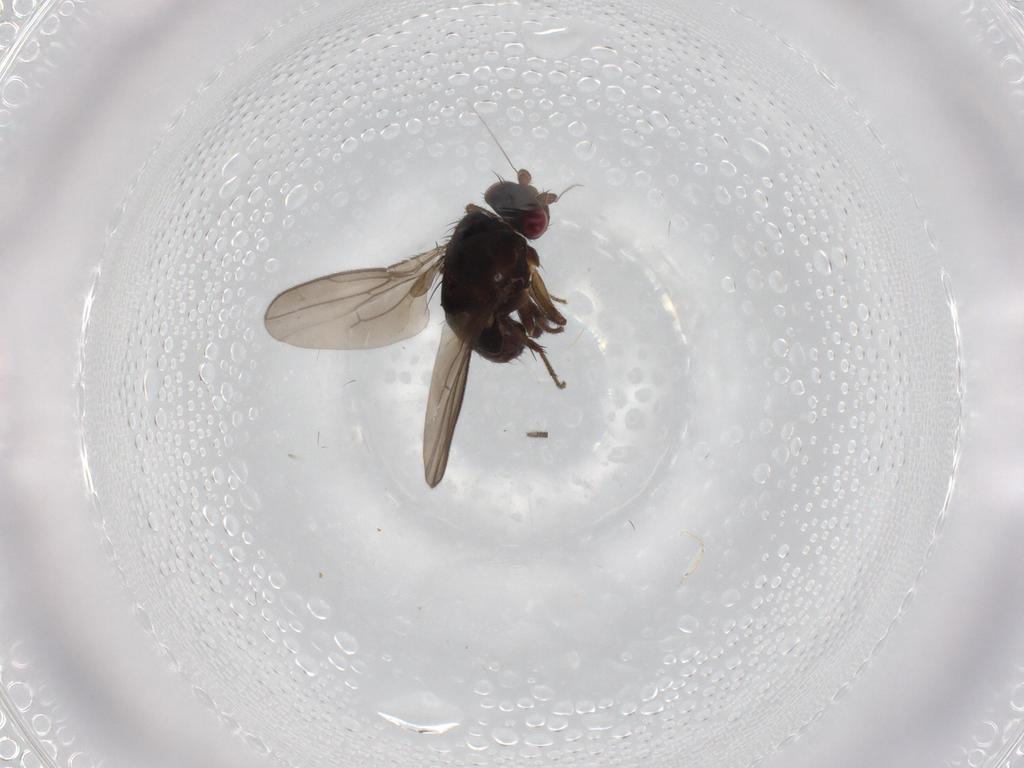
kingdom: Animalia
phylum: Arthropoda
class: Insecta
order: Diptera
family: Sphaeroceridae
